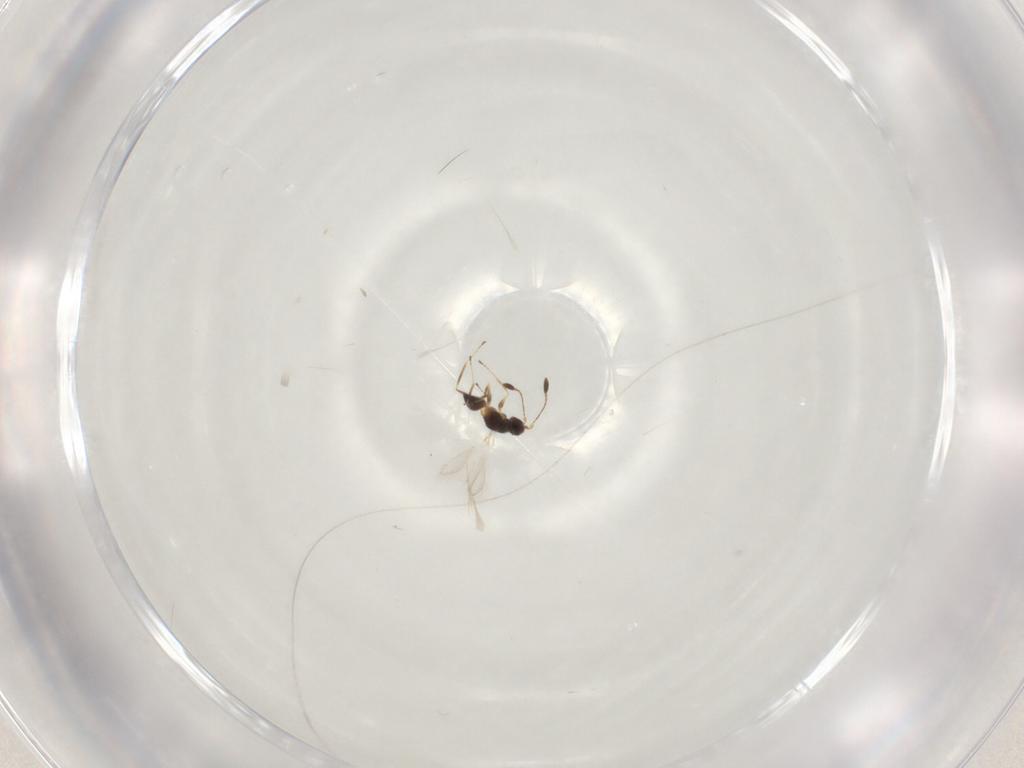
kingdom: Animalia
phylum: Arthropoda
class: Insecta
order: Hymenoptera
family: Mymaridae
